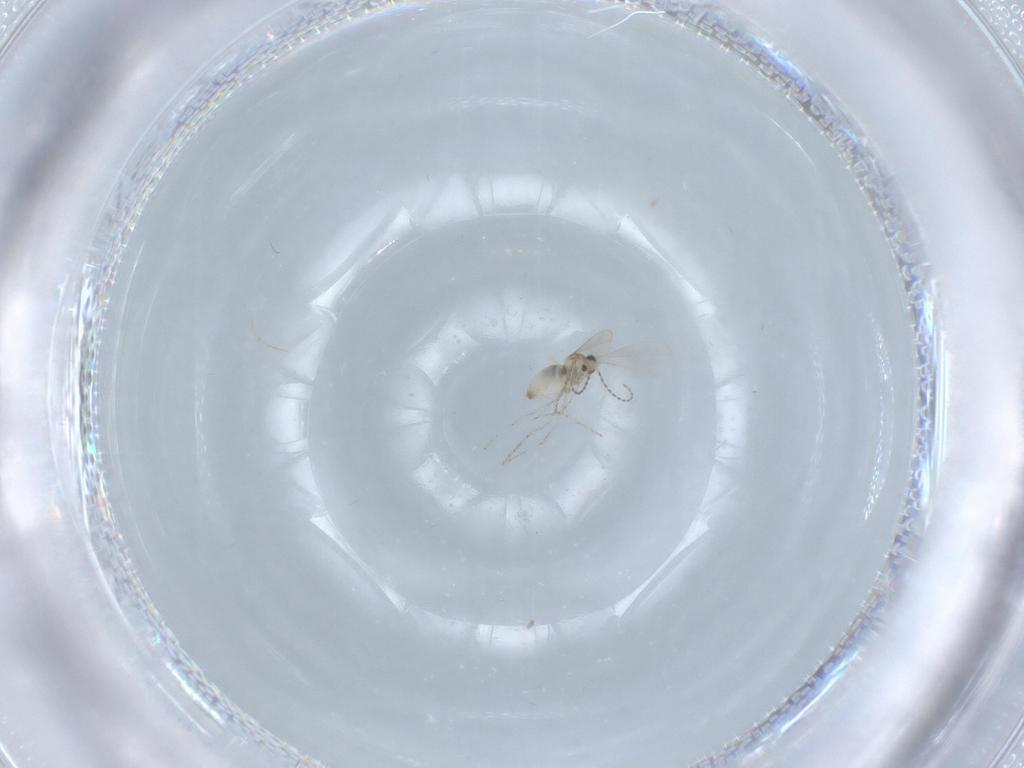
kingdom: Animalia
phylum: Arthropoda
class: Insecta
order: Diptera
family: Cecidomyiidae
